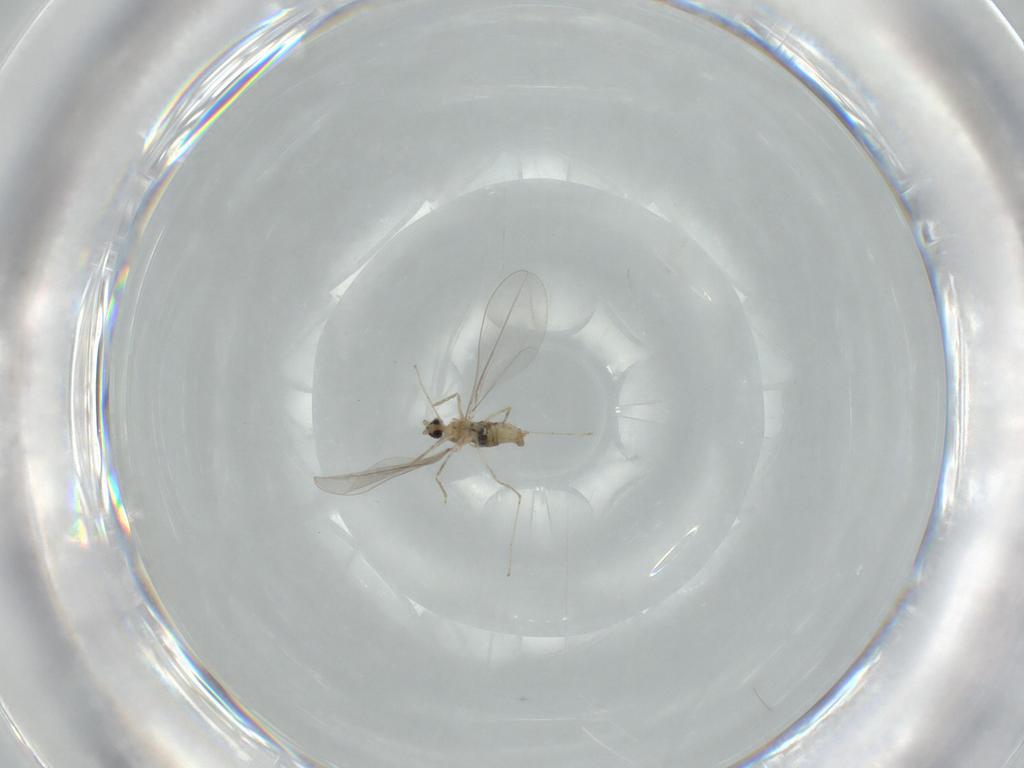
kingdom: Animalia
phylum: Arthropoda
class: Insecta
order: Diptera
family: Cecidomyiidae
